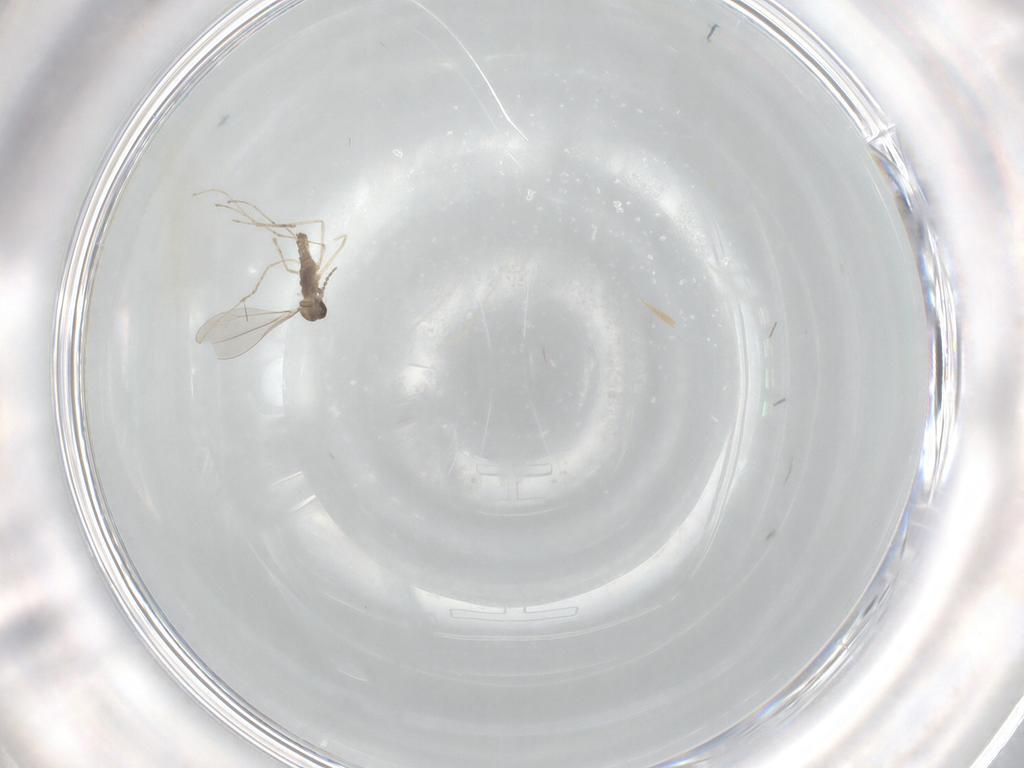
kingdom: Animalia
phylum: Arthropoda
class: Insecta
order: Diptera
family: Cecidomyiidae
